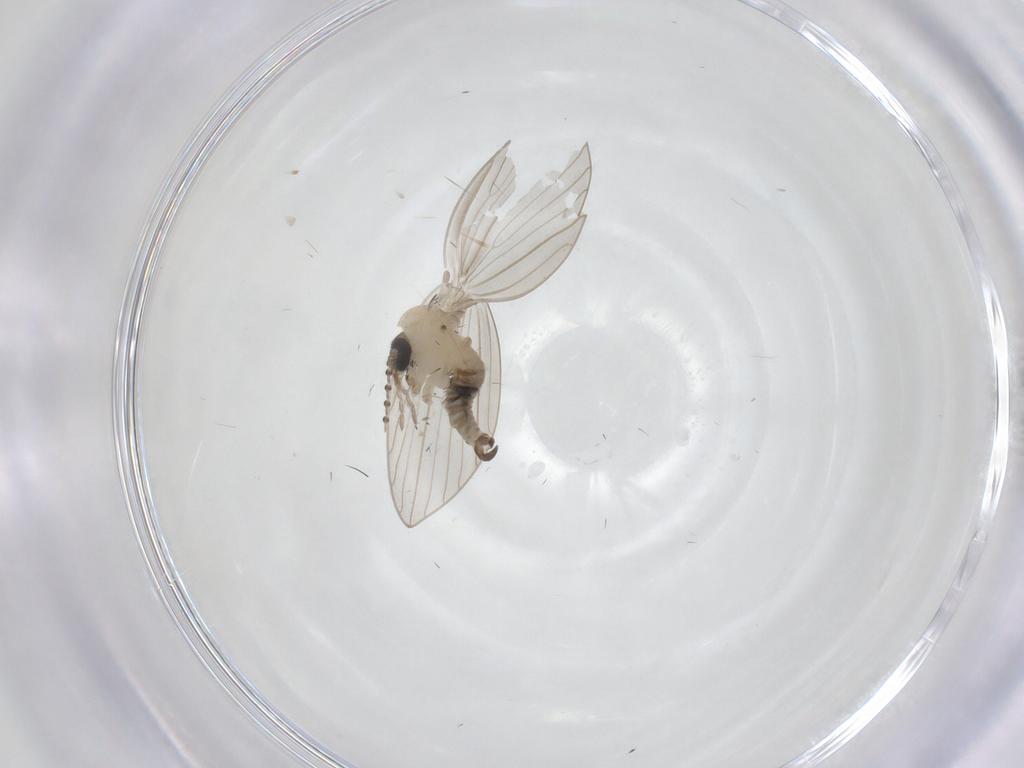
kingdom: Animalia
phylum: Arthropoda
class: Insecta
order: Diptera
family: Psychodidae
